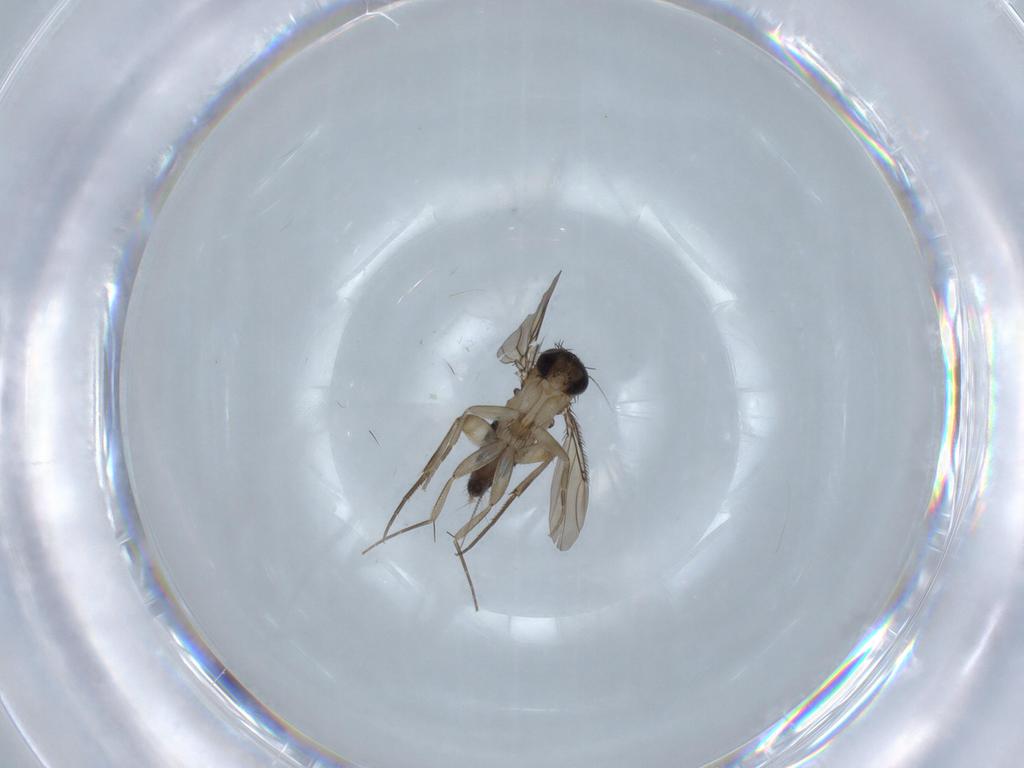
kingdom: Animalia
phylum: Arthropoda
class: Insecta
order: Diptera
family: Phoridae
